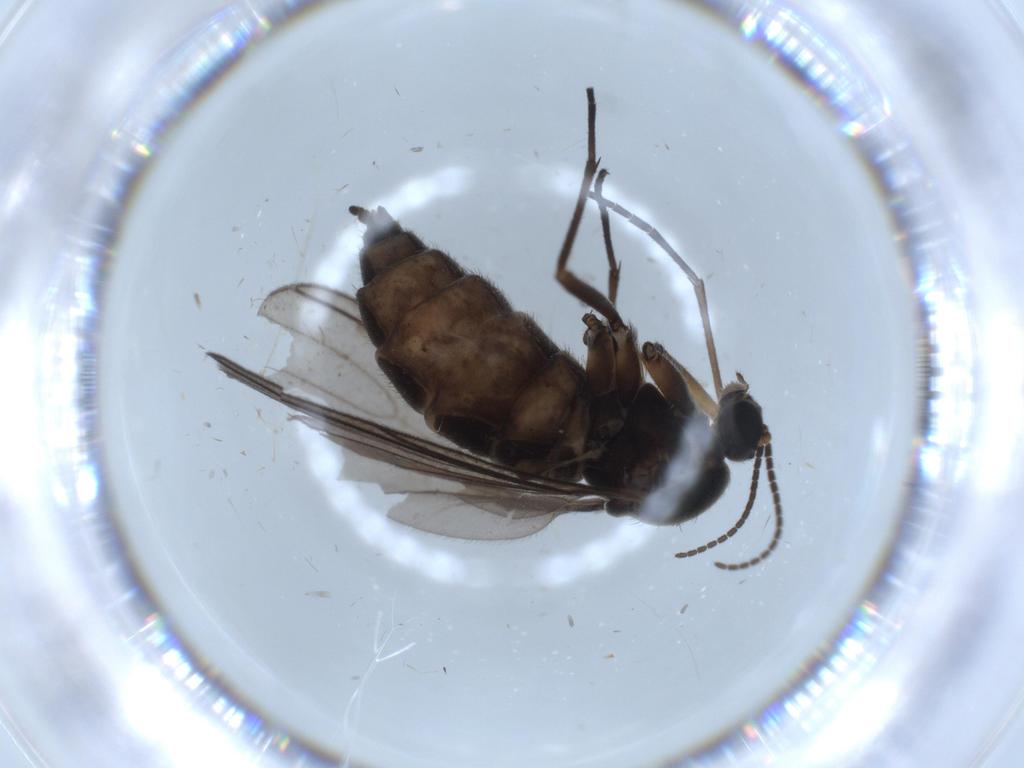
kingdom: Animalia
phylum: Arthropoda
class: Insecta
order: Diptera
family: Sciaridae
